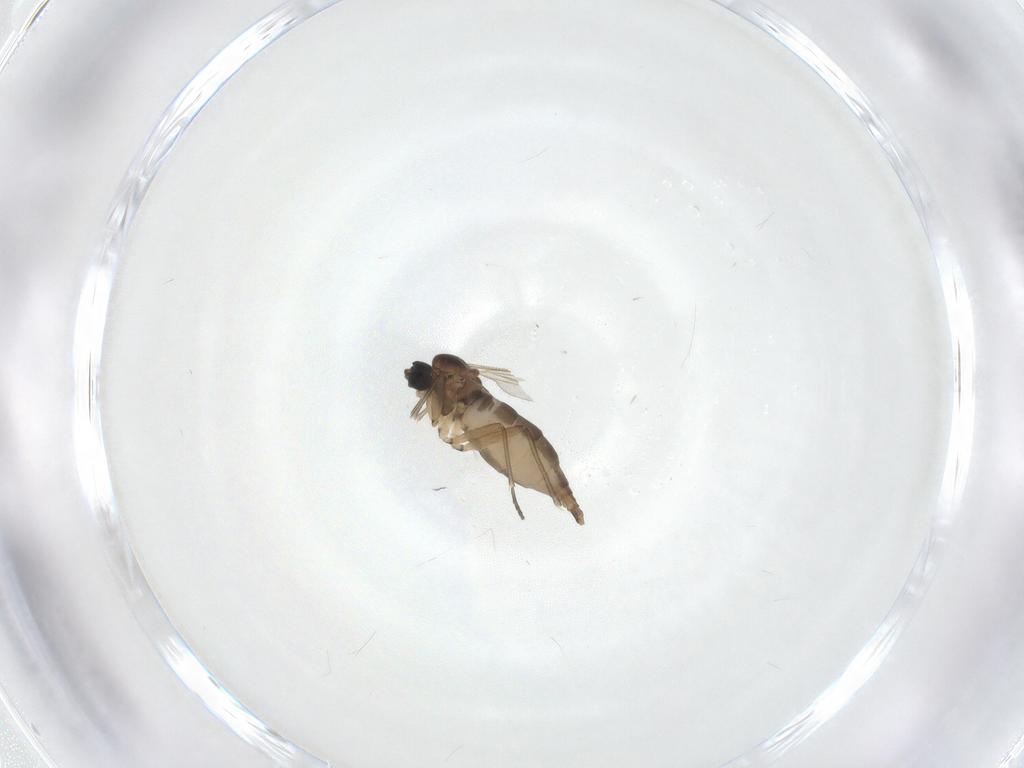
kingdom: Animalia
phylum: Arthropoda
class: Insecta
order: Diptera
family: Sciaridae
